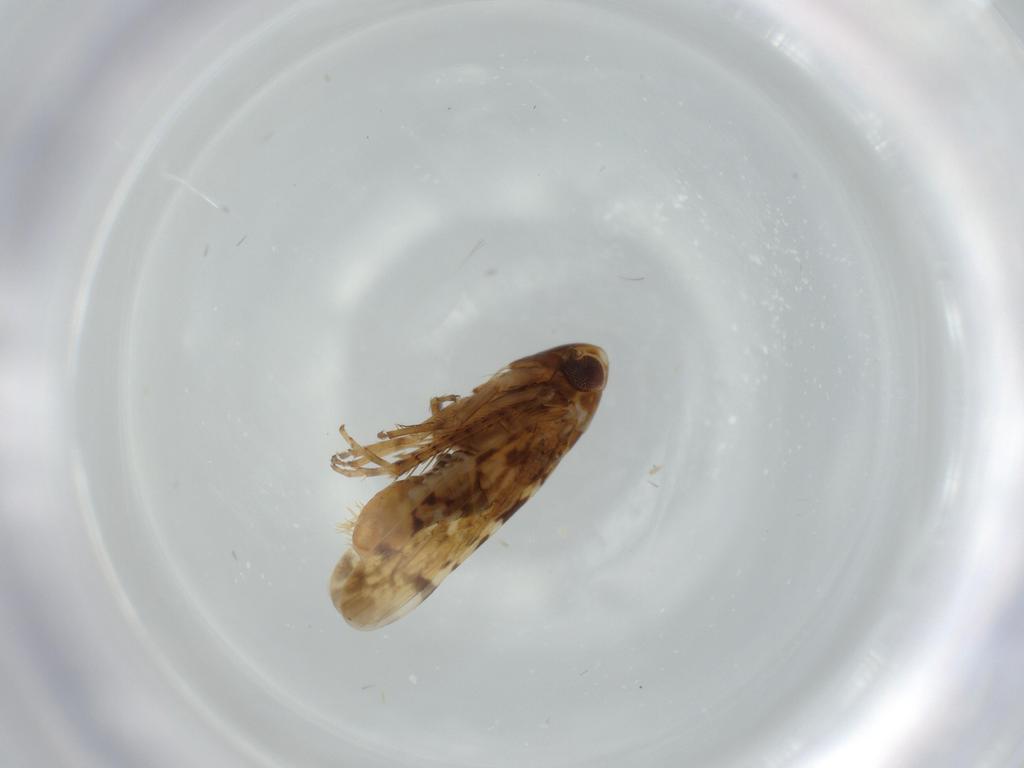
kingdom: Animalia
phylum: Arthropoda
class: Insecta
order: Hemiptera
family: Cicadellidae
